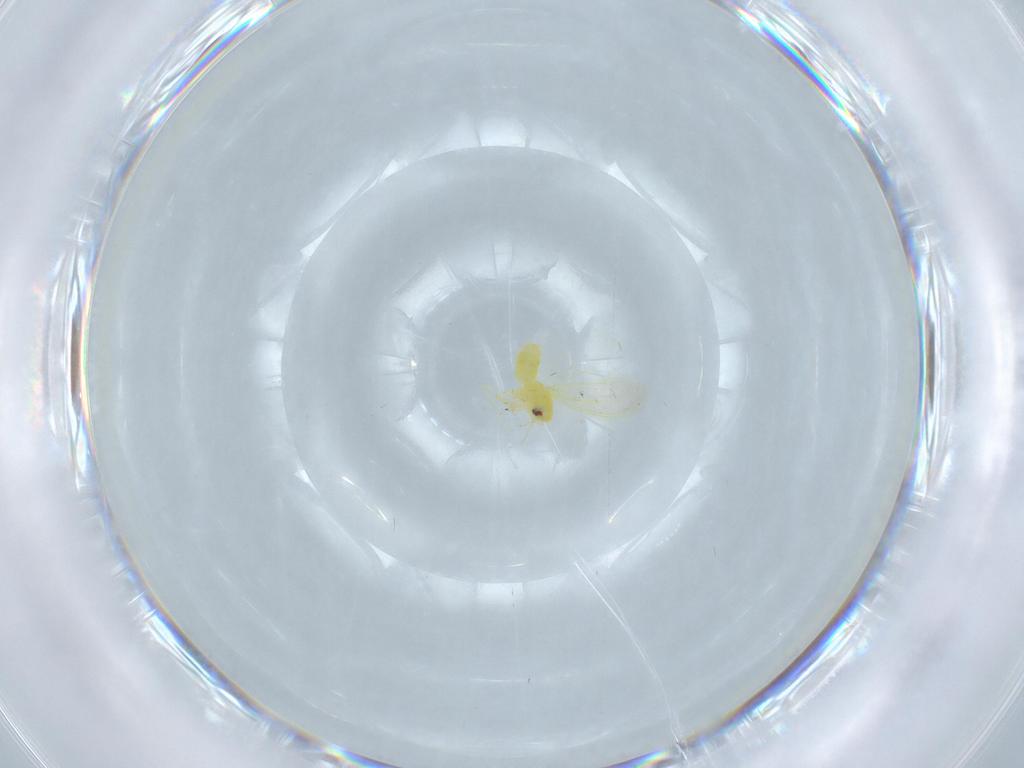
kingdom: Animalia
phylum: Arthropoda
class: Insecta
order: Hemiptera
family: Aleyrodidae
